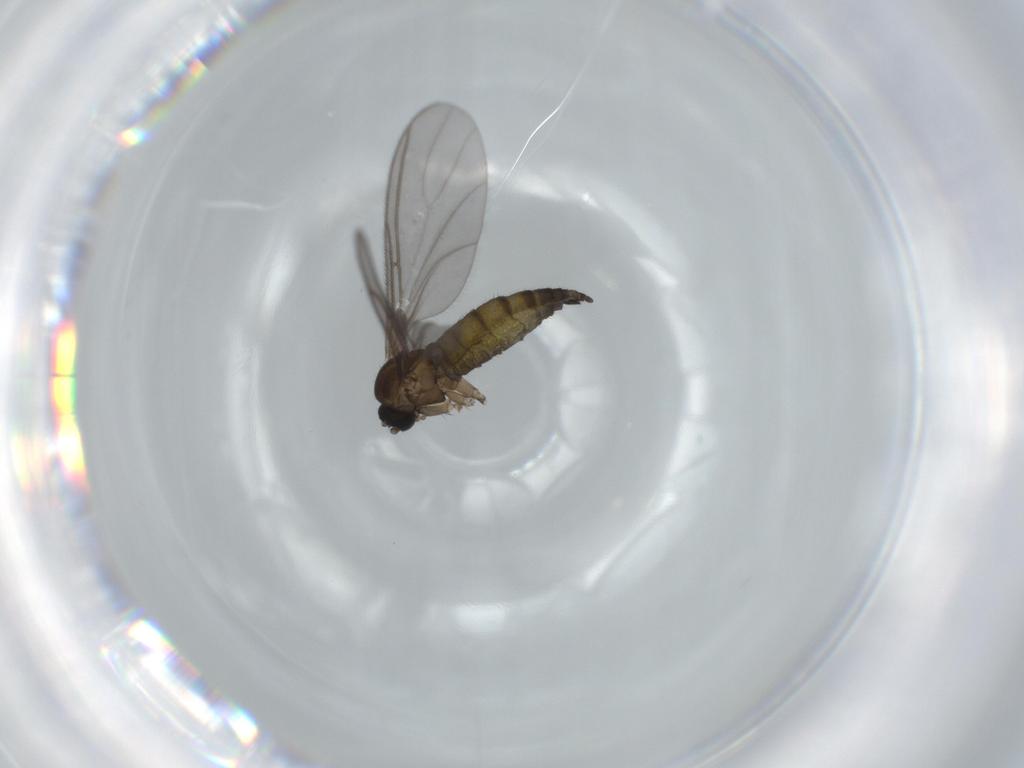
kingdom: Animalia
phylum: Arthropoda
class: Insecta
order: Diptera
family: Sciaridae
